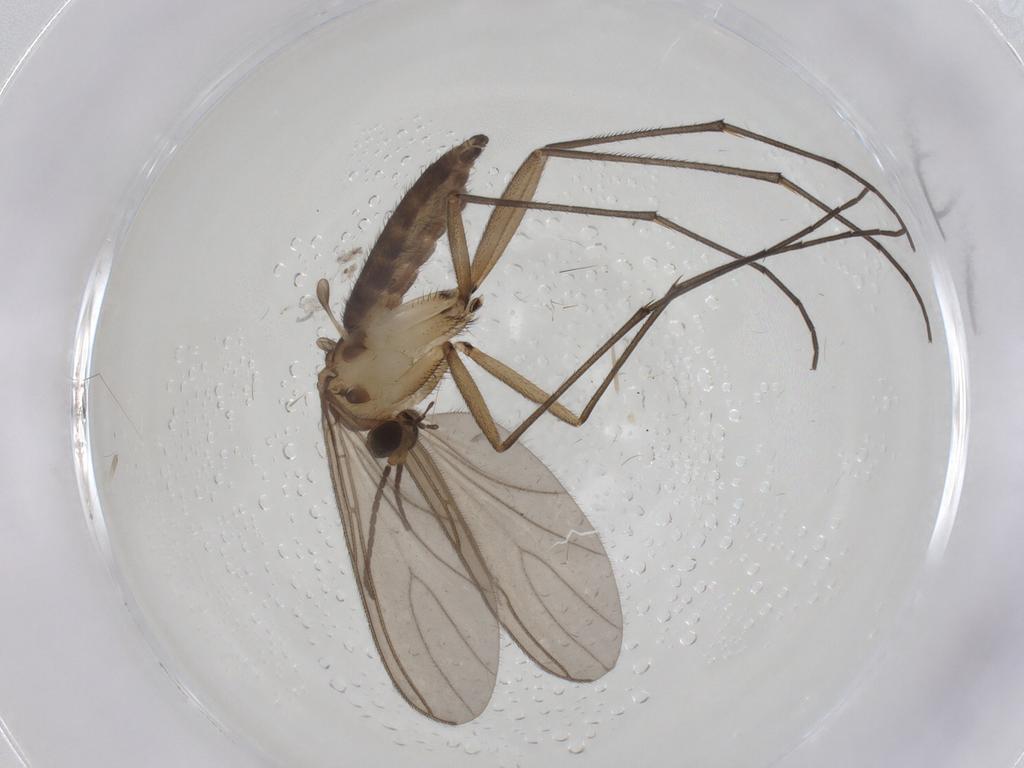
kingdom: Animalia
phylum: Arthropoda
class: Insecta
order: Diptera
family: Sciaridae
